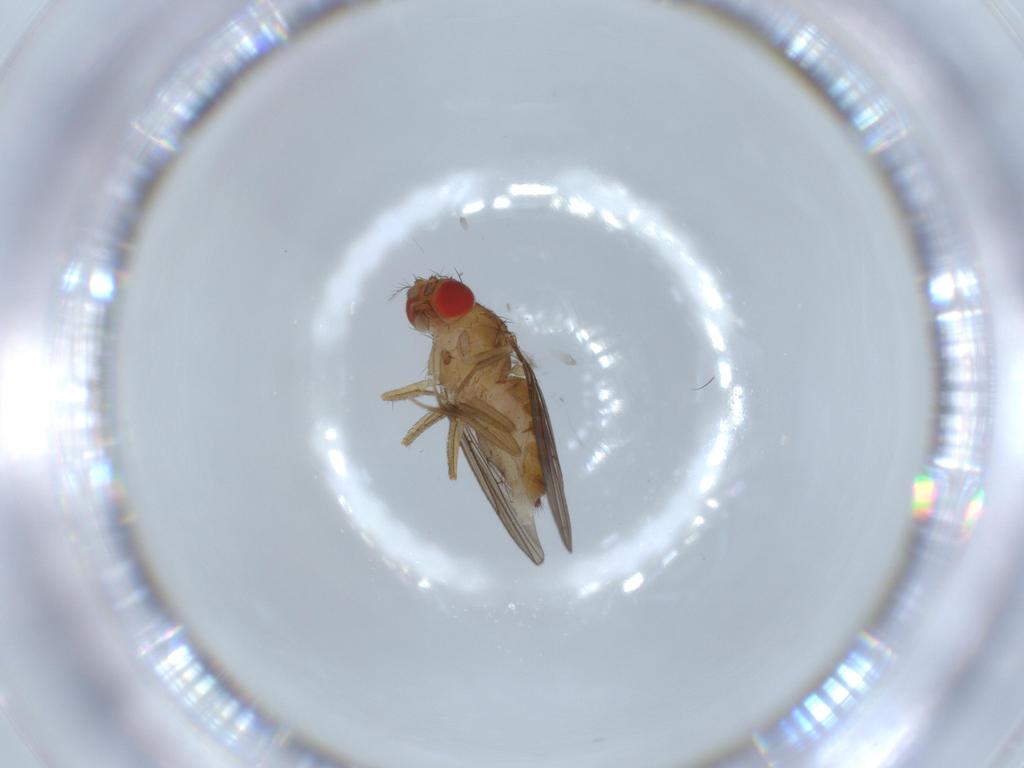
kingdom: Animalia
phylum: Arthropoda
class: Insecta
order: Diptera
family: Drosophilidae
